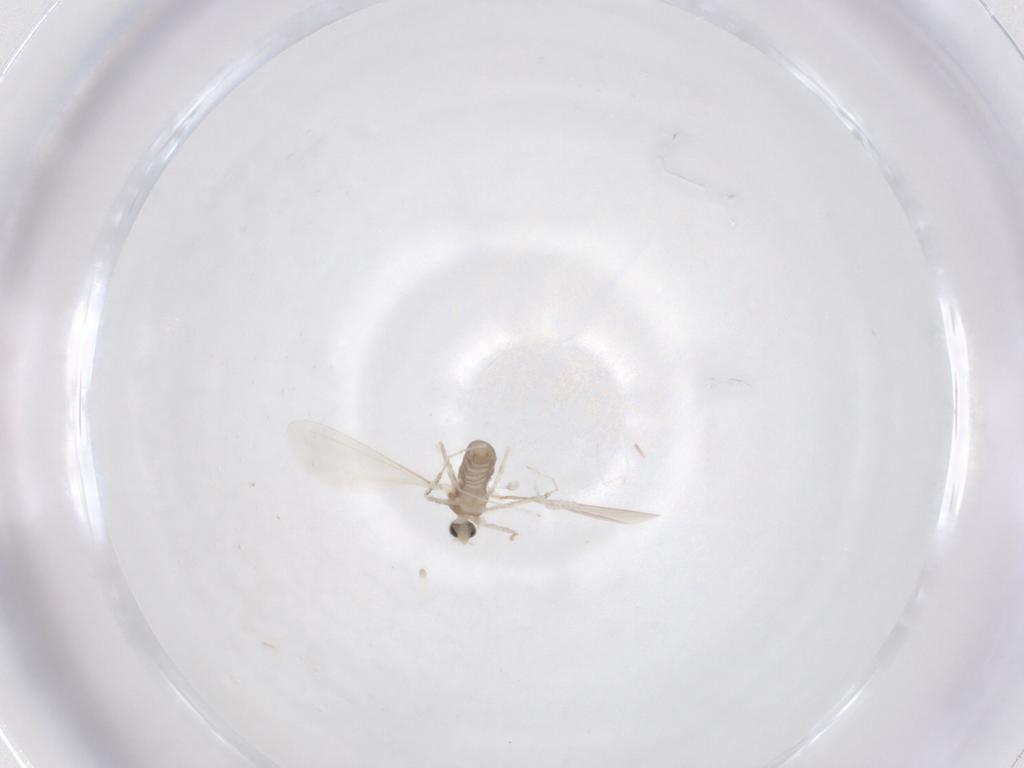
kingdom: Animalia
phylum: Arthropoda
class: Insecta
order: Diptera
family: Cecidomyiidae
